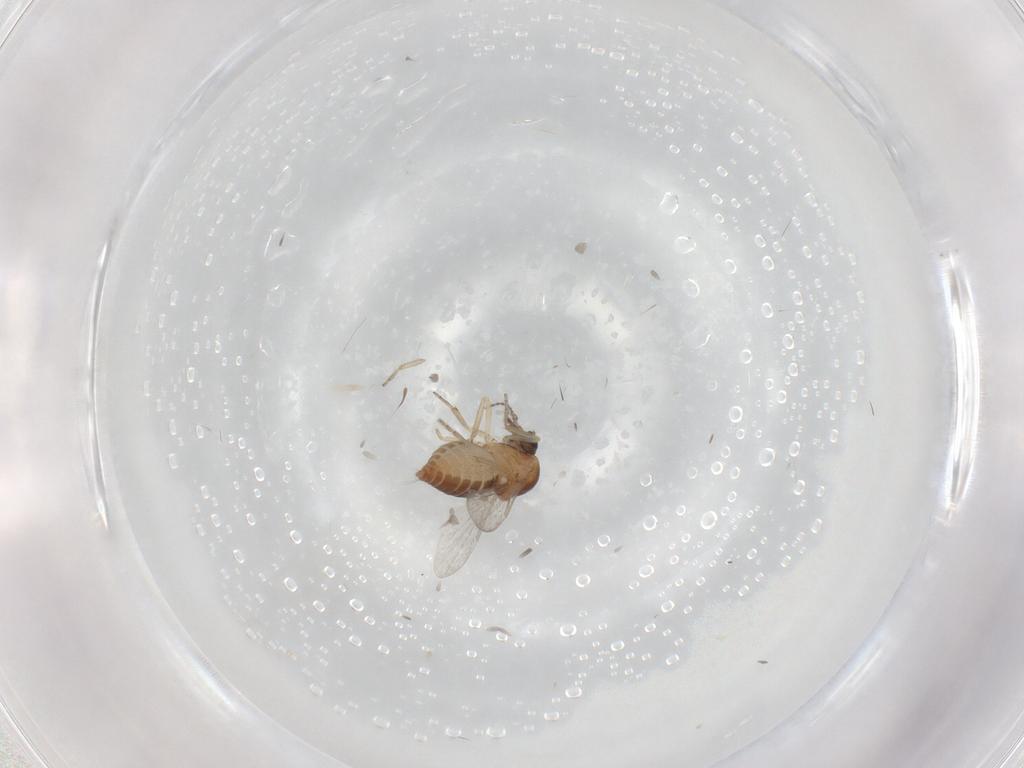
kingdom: Animalia
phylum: Arthropoda
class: Insecta
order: Diptera
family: Ceratopogonidae
